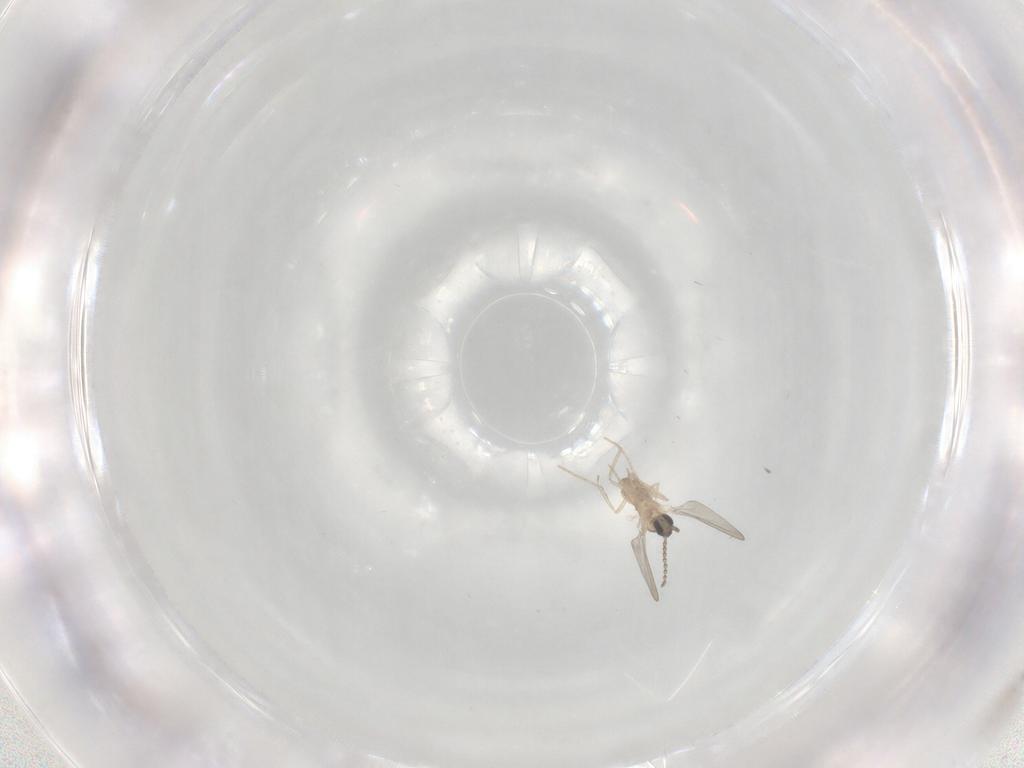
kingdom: Animalia
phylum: Arthropoda
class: Insecta
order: Diptera
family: Cecidomyiidae
